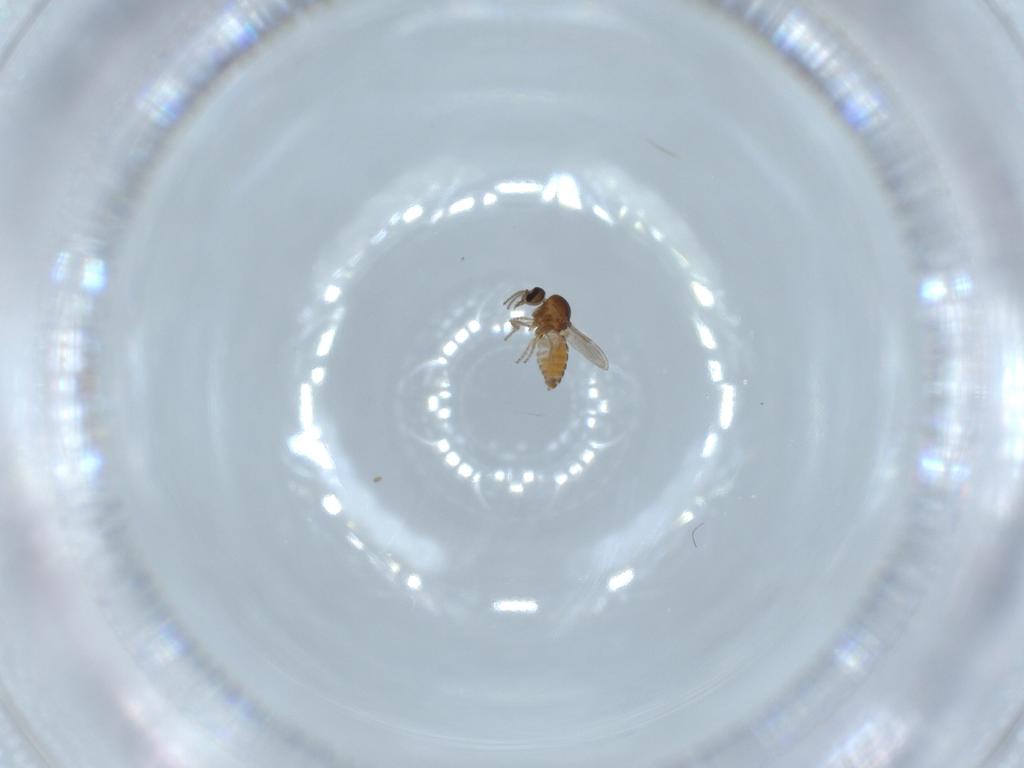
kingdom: Animalia
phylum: Arthropoda
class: Insecta
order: Diptera
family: Ceratopogonidae
